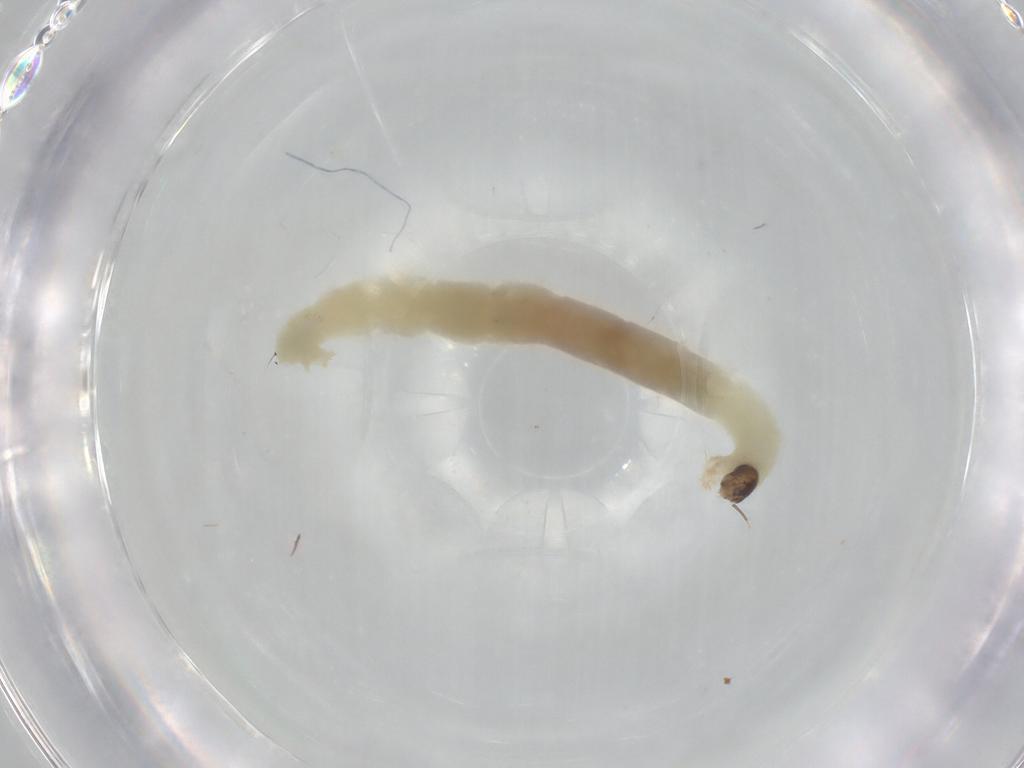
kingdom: Animalia
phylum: Arthropoda
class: Insecta
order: Diptera
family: Chironomidae
